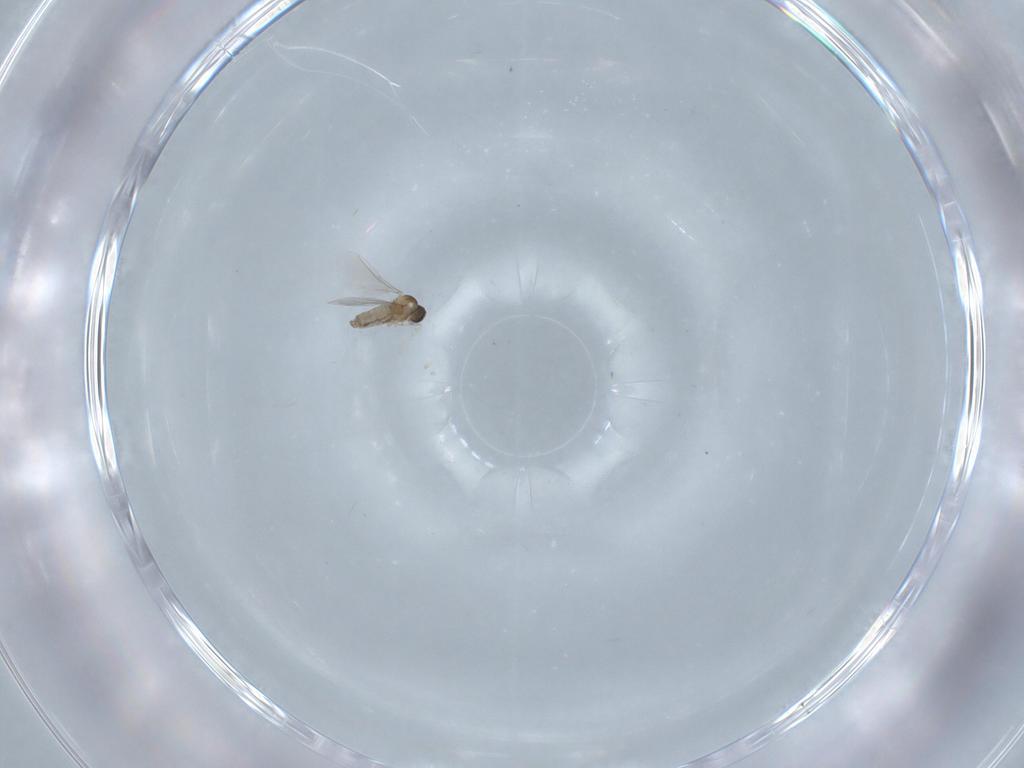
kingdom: Animalia
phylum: Arthropoda
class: Insecta
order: Diptera
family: Cecidomyiidae
